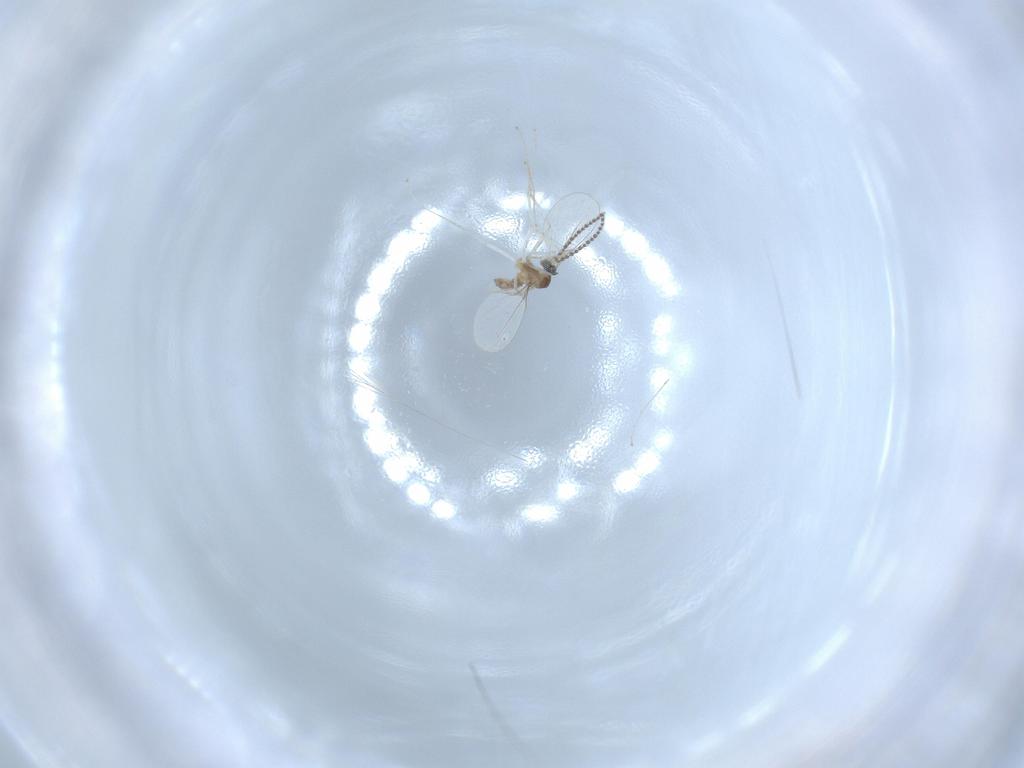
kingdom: Animalia
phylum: Arthropoda
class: Insecta
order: Diptera
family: Cecidomyiidae
